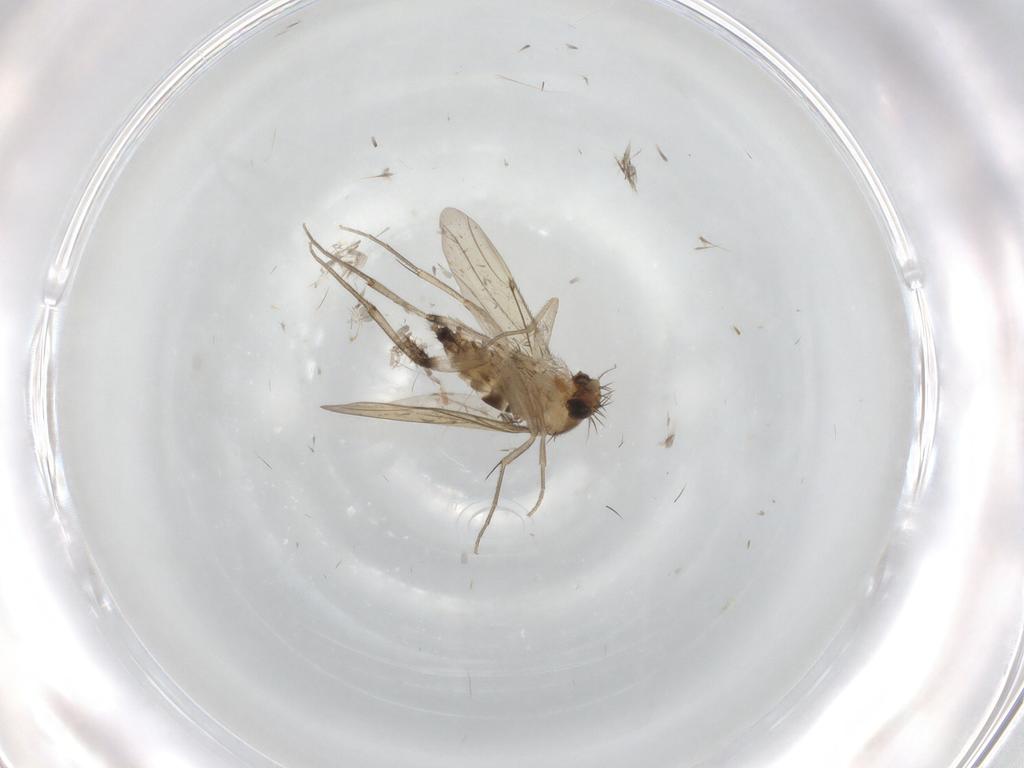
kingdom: Animalia
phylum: Arthropoda
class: Insecta
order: Diptera
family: Phoridae
